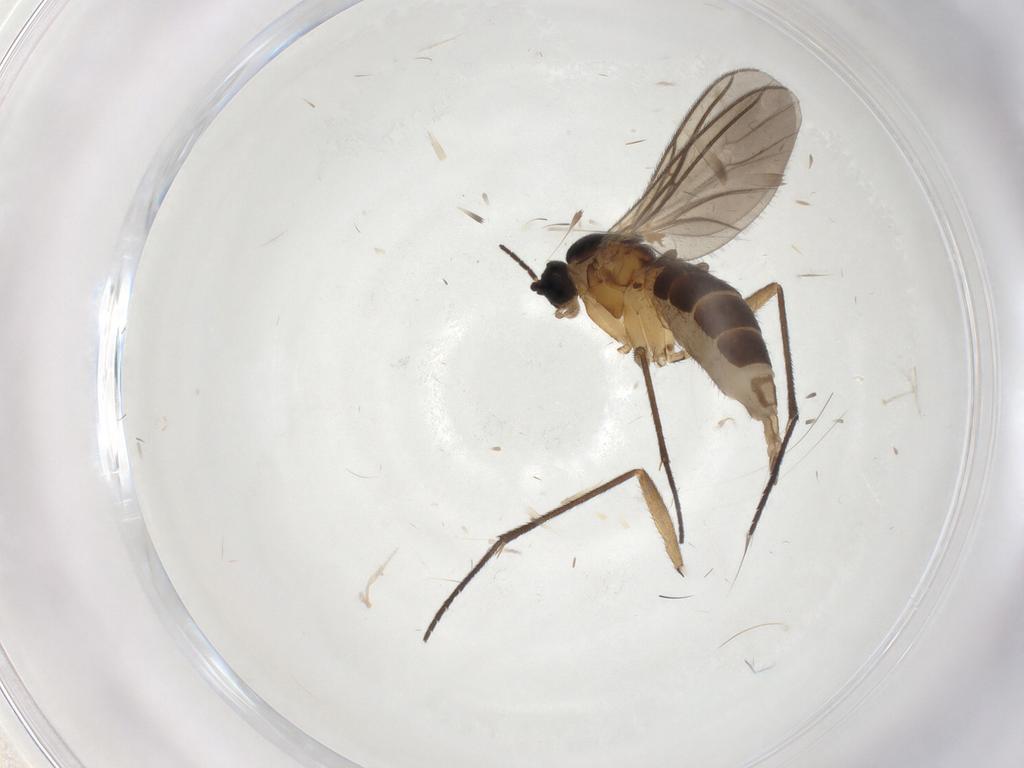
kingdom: Animalia
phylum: Arthropoda
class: Insecta
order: Diptera
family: Sciaridae
